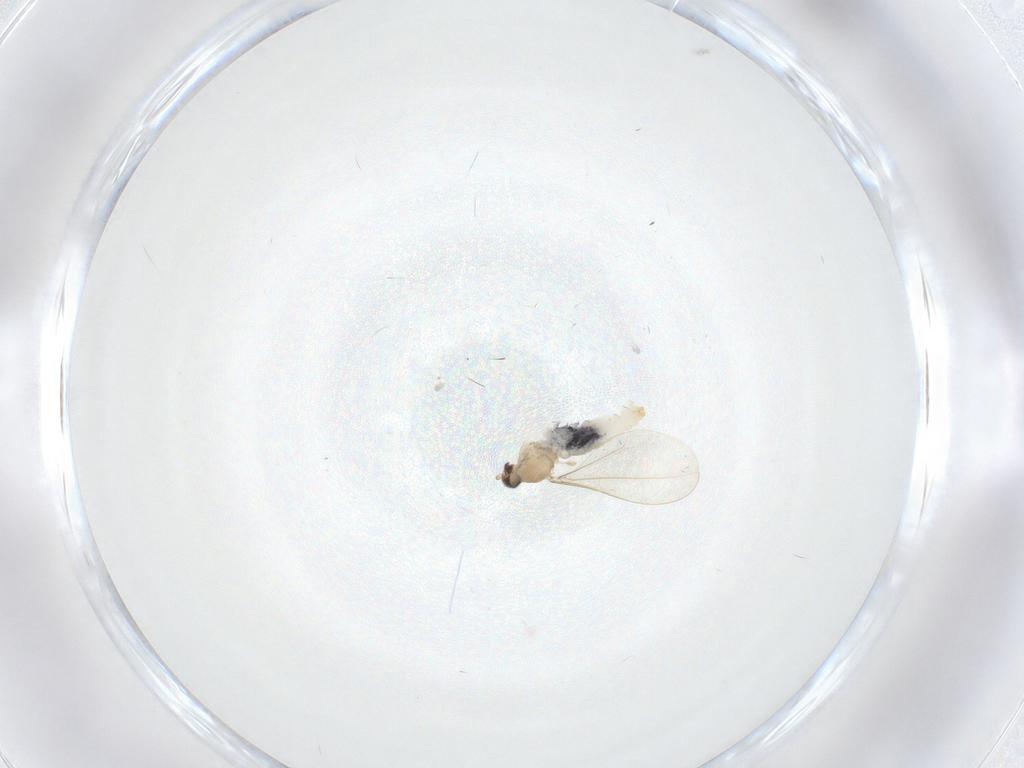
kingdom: Animalia
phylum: Arthropoda
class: Insecta
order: Diptera
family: Cecidomyiidae
